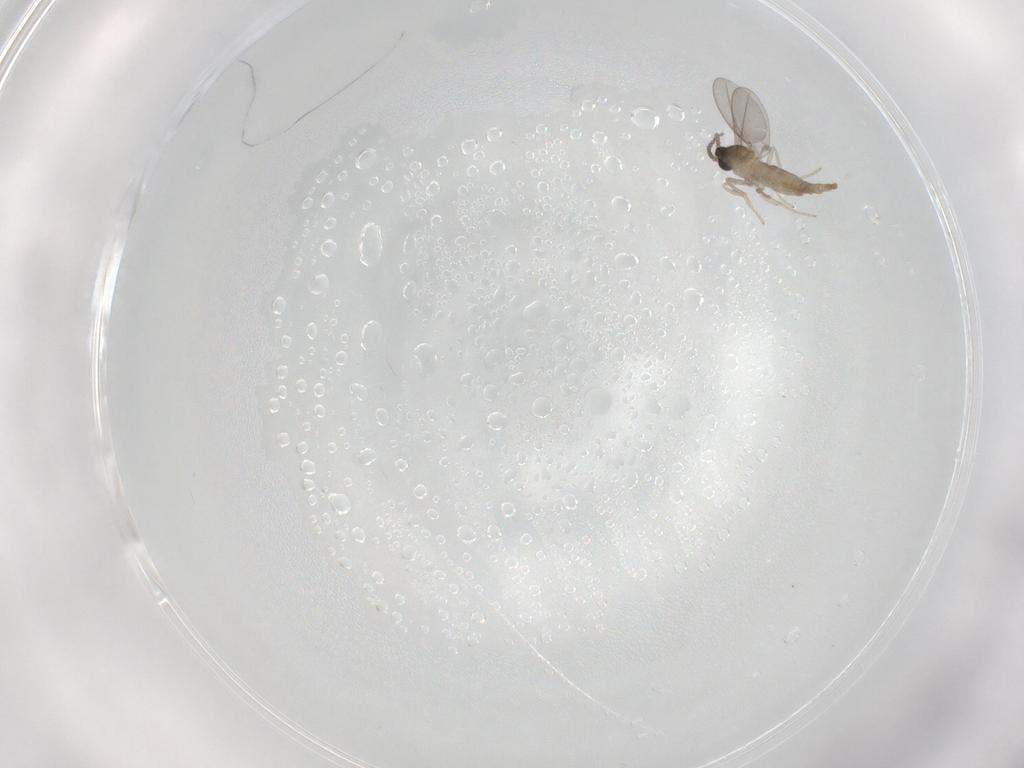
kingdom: Animalia
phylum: Arthropoda
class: Insecta
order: Diptera
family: Cecidomyiidae
